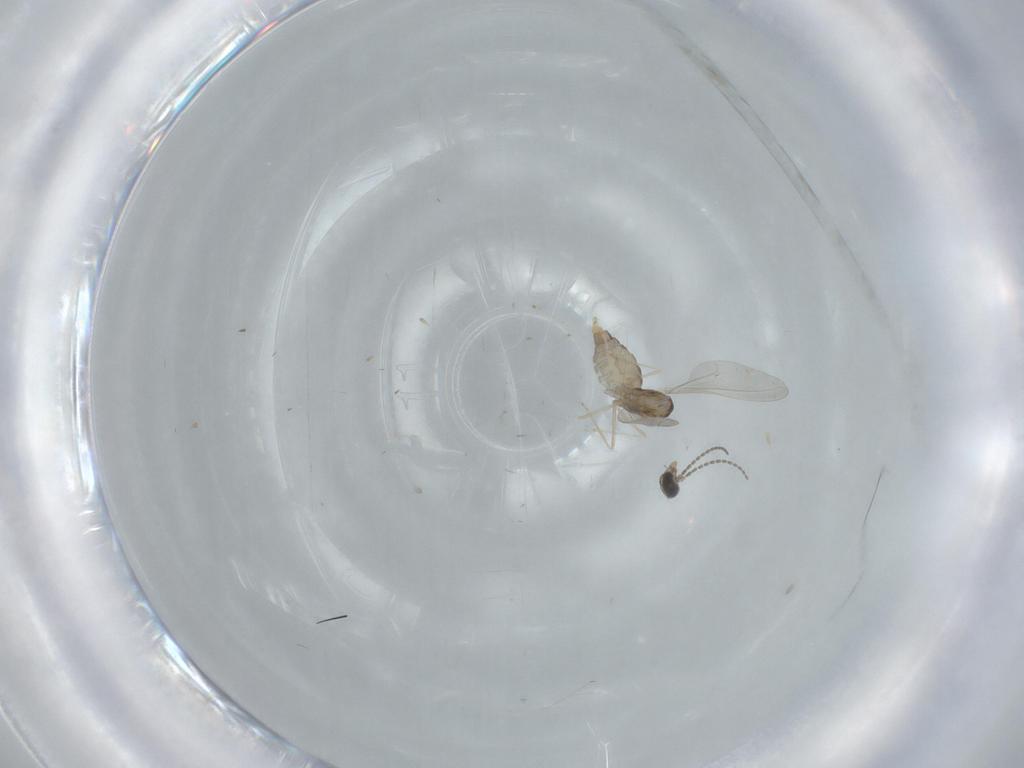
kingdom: Animalia
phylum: Arthropoda
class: Insecta
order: Diptera
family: Cecidomyiidae
